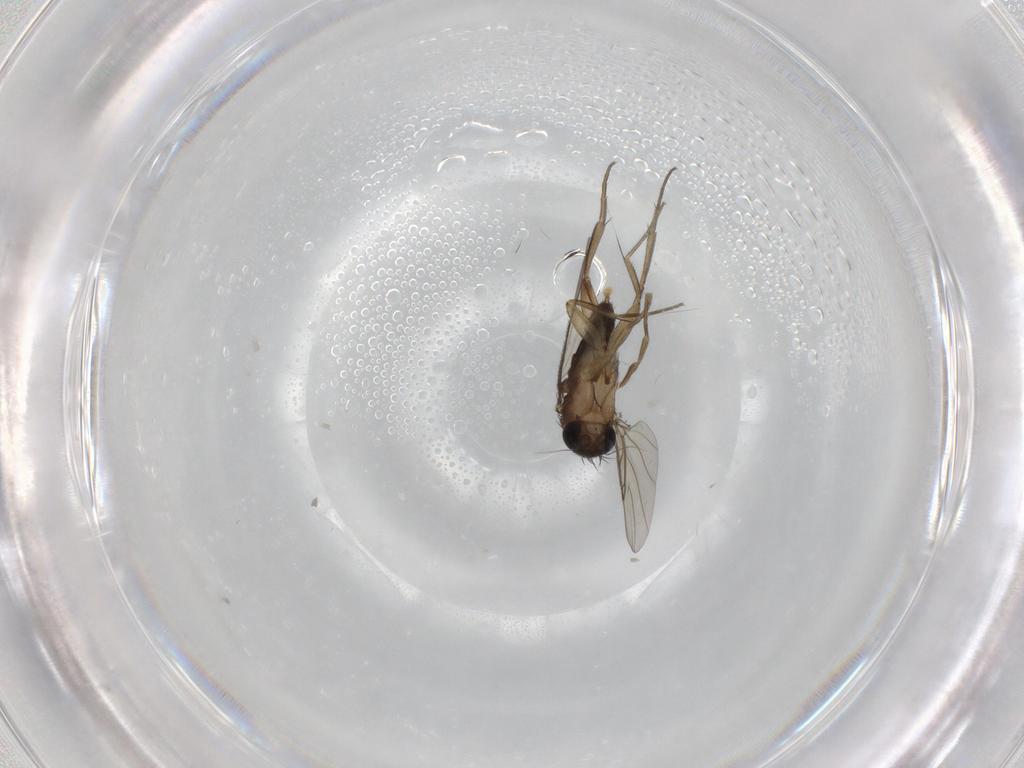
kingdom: Animalia
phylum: Arthropoda
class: Insecta
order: Diptera
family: Phoridae
